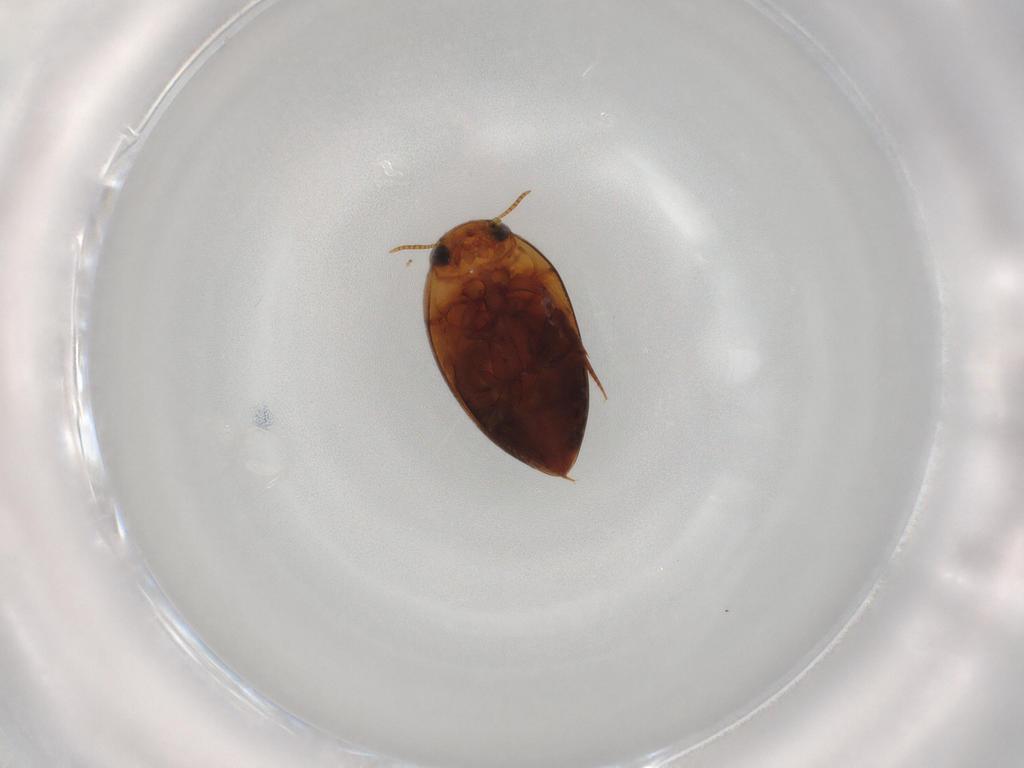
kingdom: Animalia
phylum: Arthropoda
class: Insecta
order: Coleoptera
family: Noteridae
